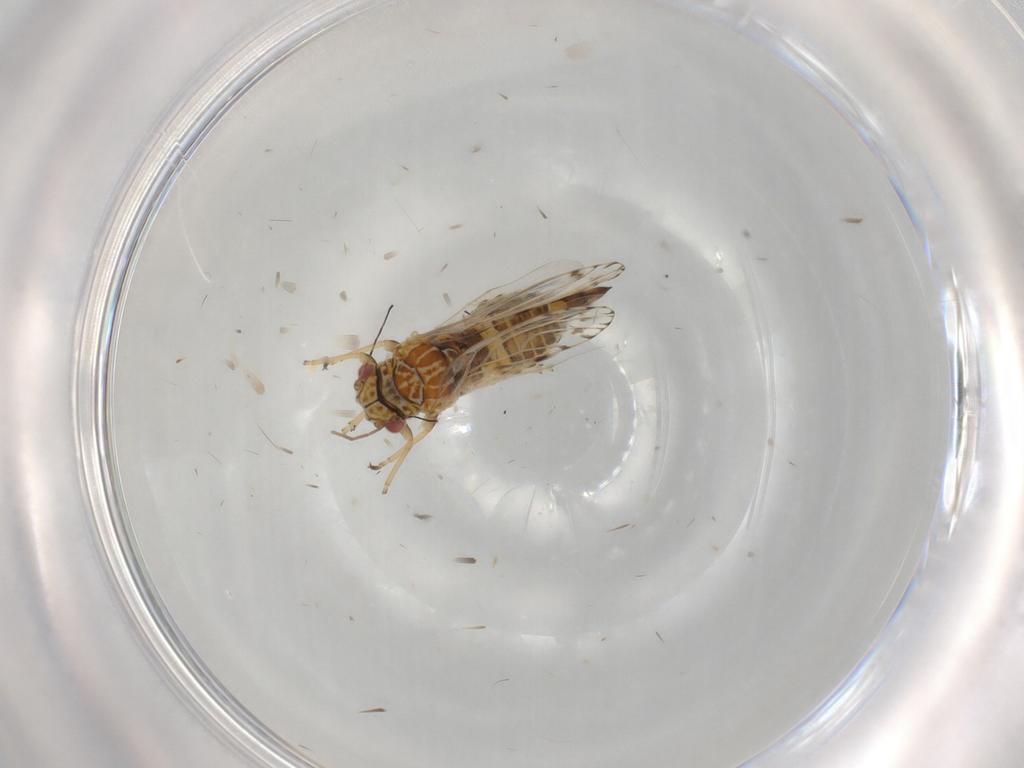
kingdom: Animalia
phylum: Arthropoda
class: Insecta
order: Hemiptera
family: Psyllidae
